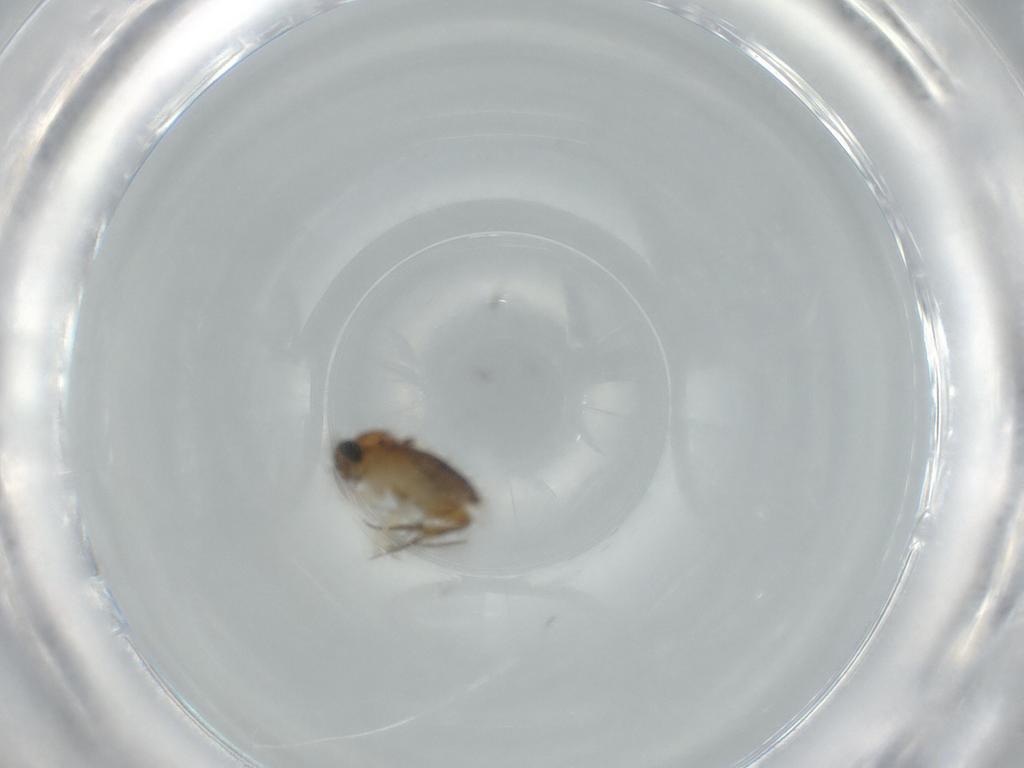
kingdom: Animalia
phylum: Arthropoda
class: Insecta
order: Diptera
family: Phoridae
